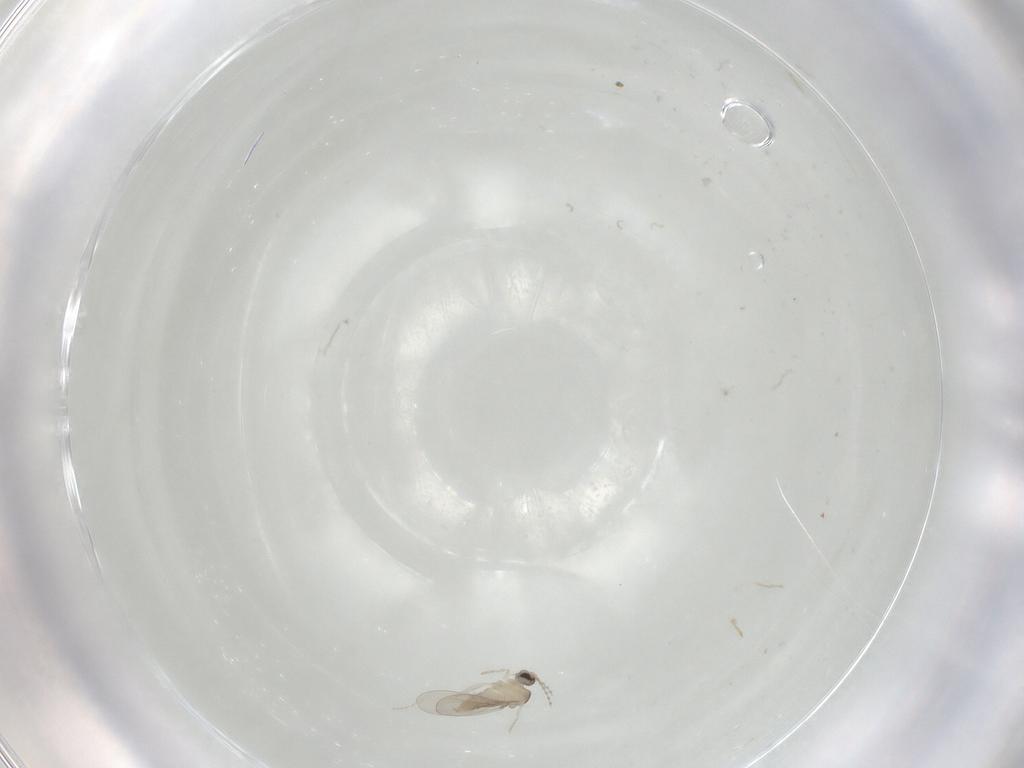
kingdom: Animalia
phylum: Arthropoda
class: Insecta
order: Diptera
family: Cecidomyiidae
